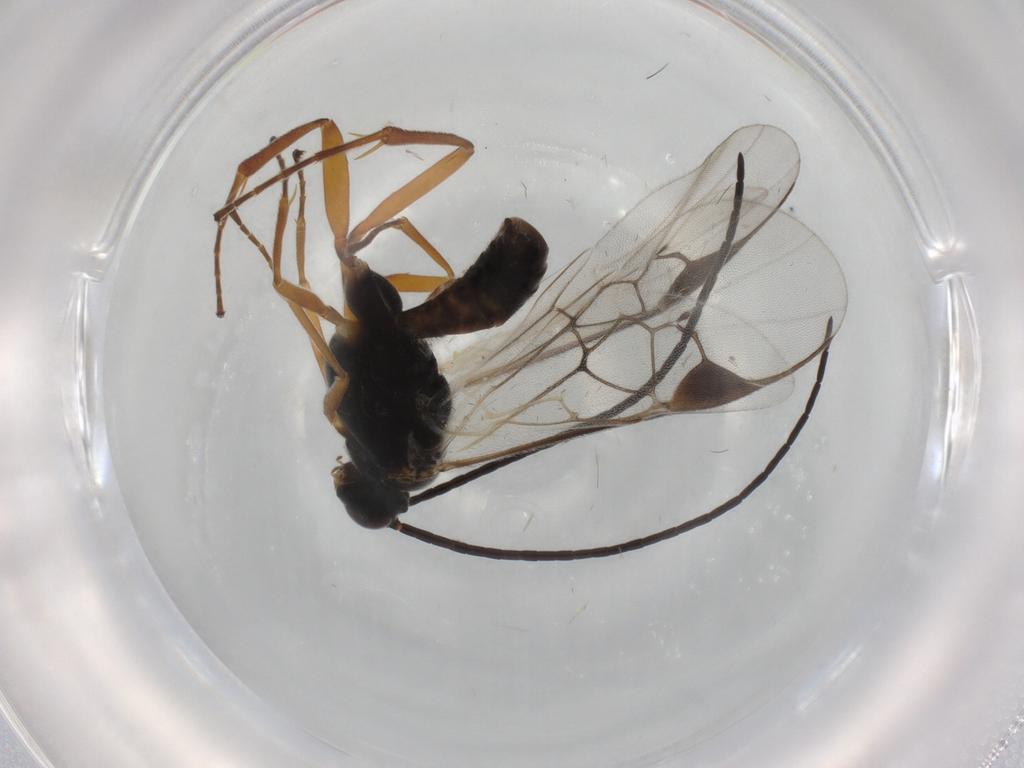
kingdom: Animalia
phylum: Arthropoda
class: Insecta
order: Hymenoptera
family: Braconidae
